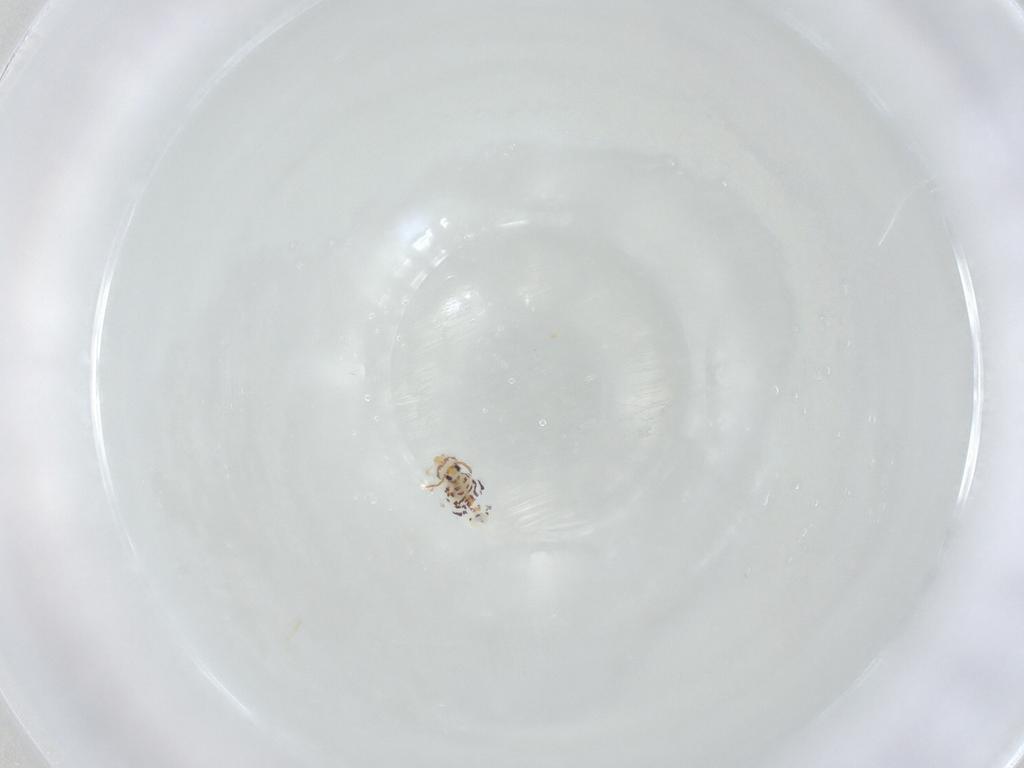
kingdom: Animalia
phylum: Arthropoda
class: Collembola
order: Symphypleona
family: Bourletiellidae
